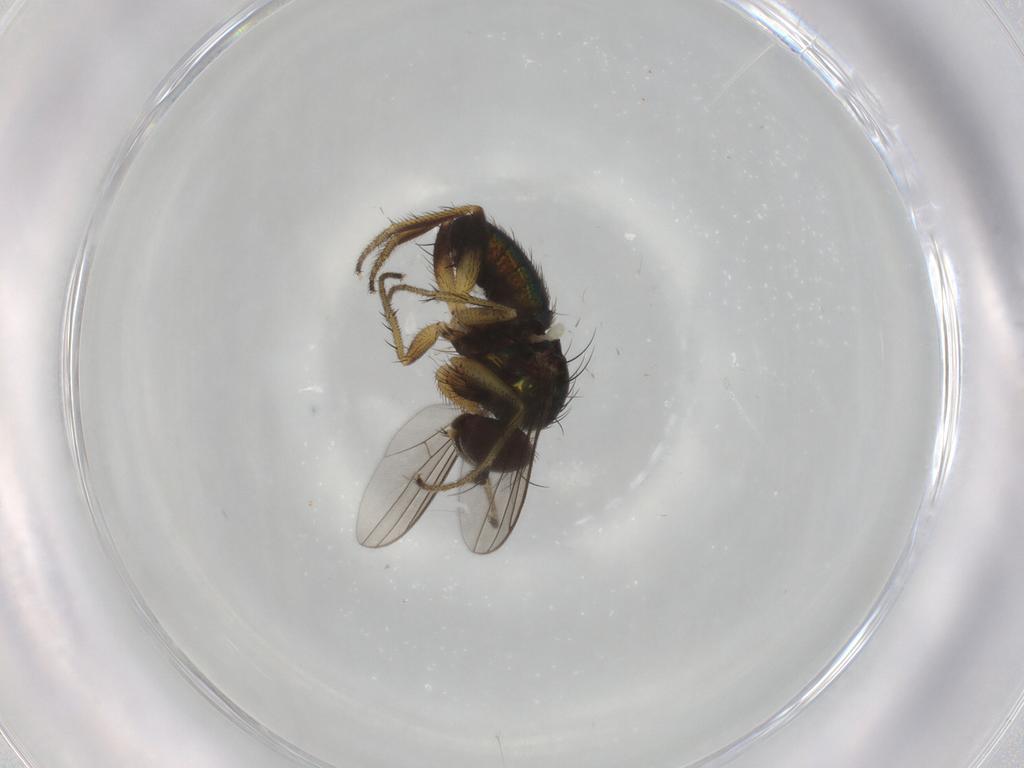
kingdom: Animalia
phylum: Arthropoda
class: Insecta
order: Diptera
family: Dolichopodidae
